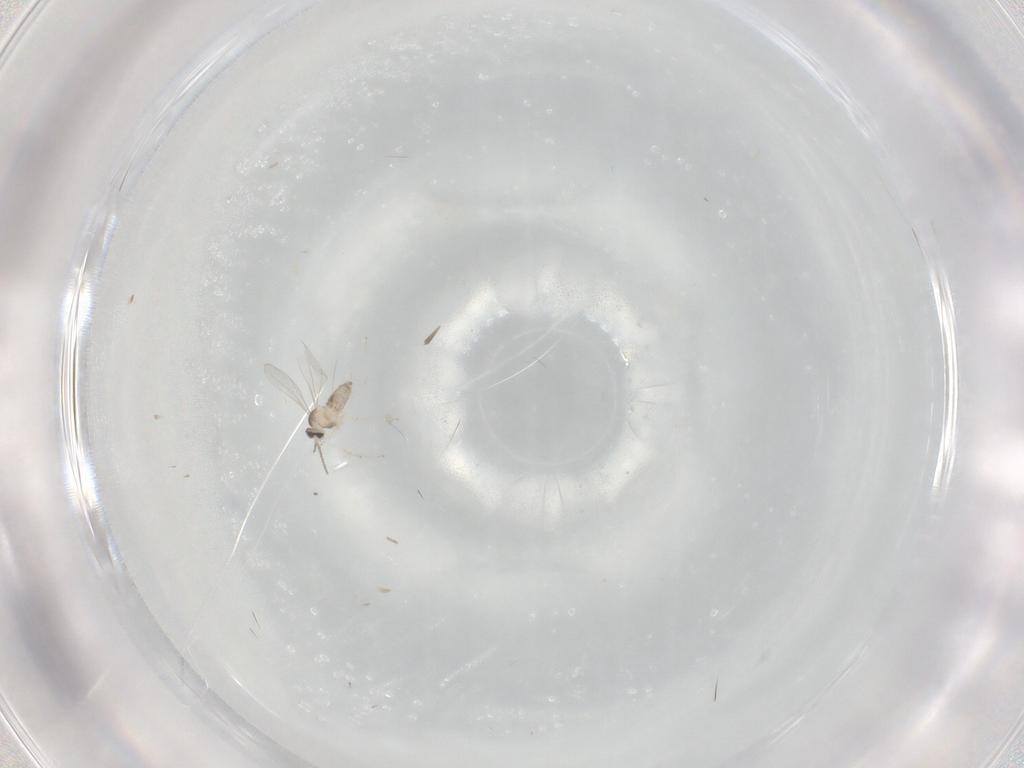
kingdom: Animalia
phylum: Arthropoda
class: Insecta
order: Diptera
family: Cecidomyiidae
